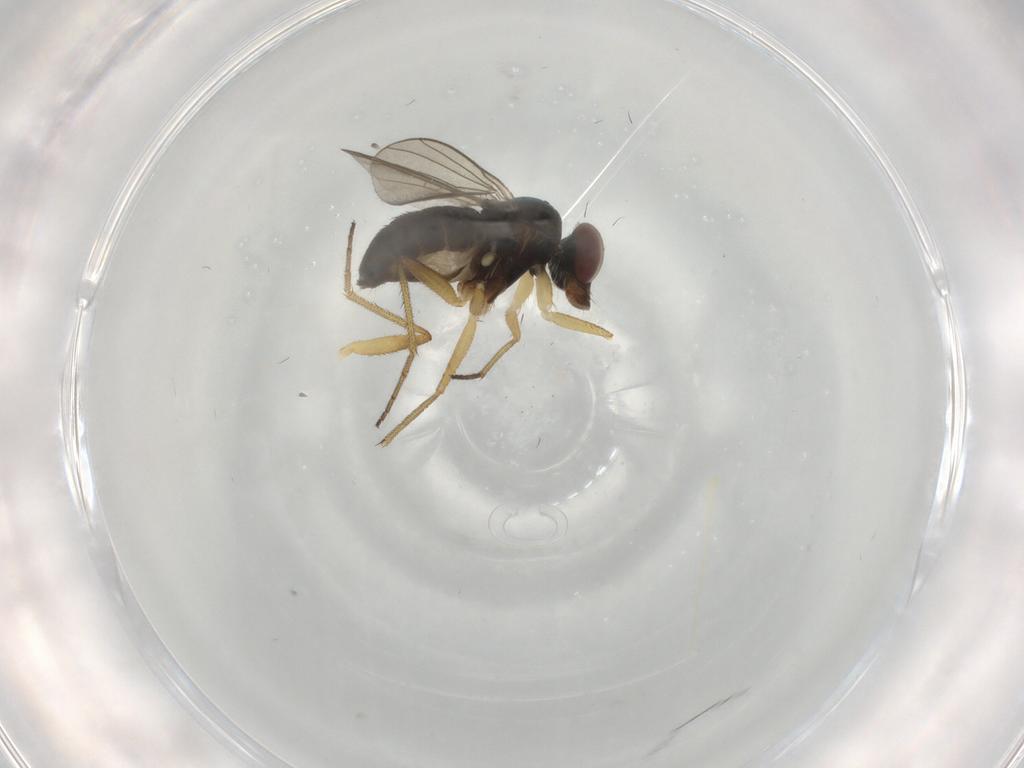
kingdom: Animalia
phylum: Arthropoda
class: Insecta
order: Diptera
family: Dolichopodidae
